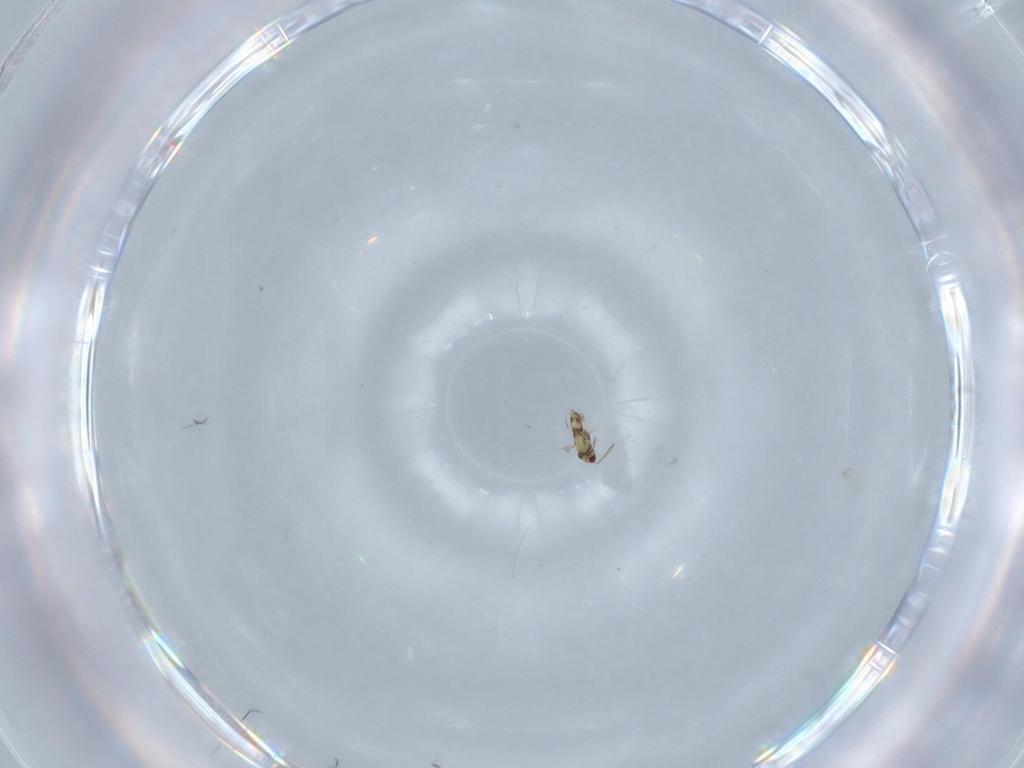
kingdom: Animalia
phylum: Arthropoda
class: Insecta
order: Hymenoptera
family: Aphelinidae
